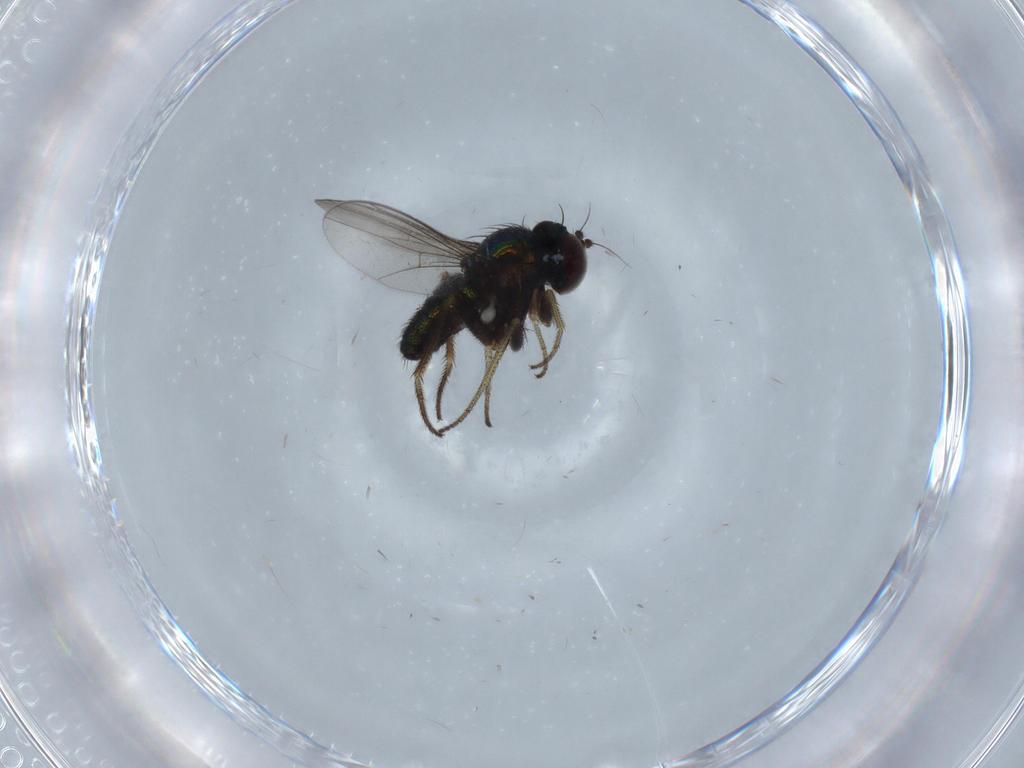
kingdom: Animalia
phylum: Arthropoda
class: Insecta
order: Diptera
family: Cecidomyiidae
